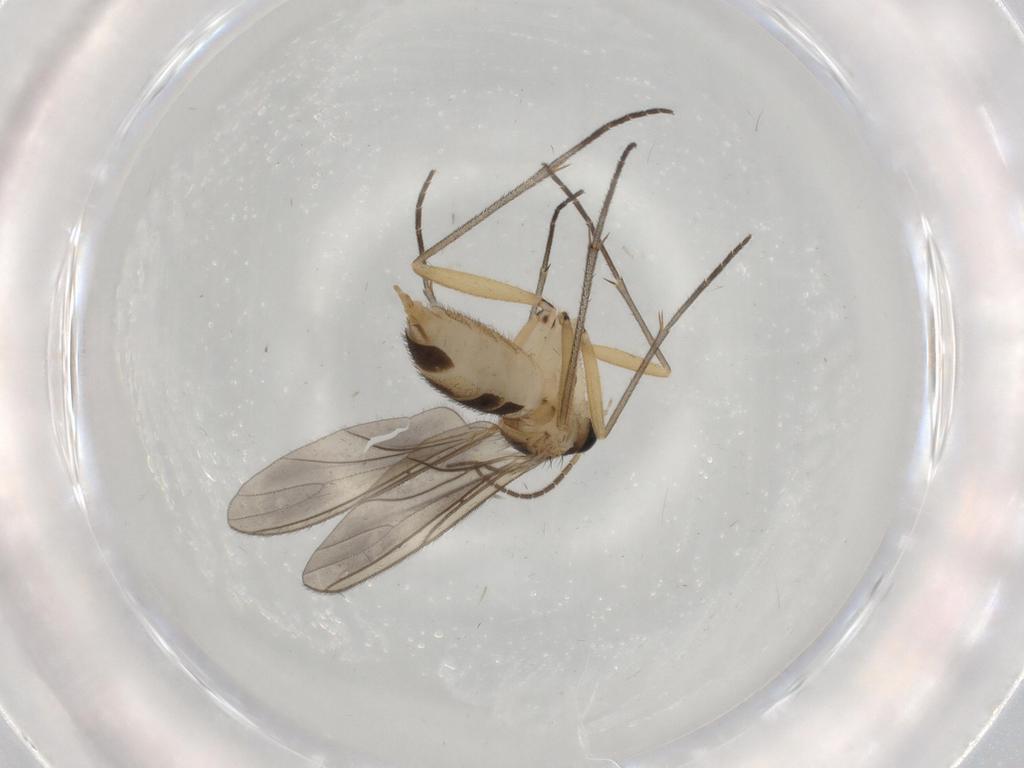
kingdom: Animalia
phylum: Arthropoda
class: Insecta
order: Diptera
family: Sciaridae
